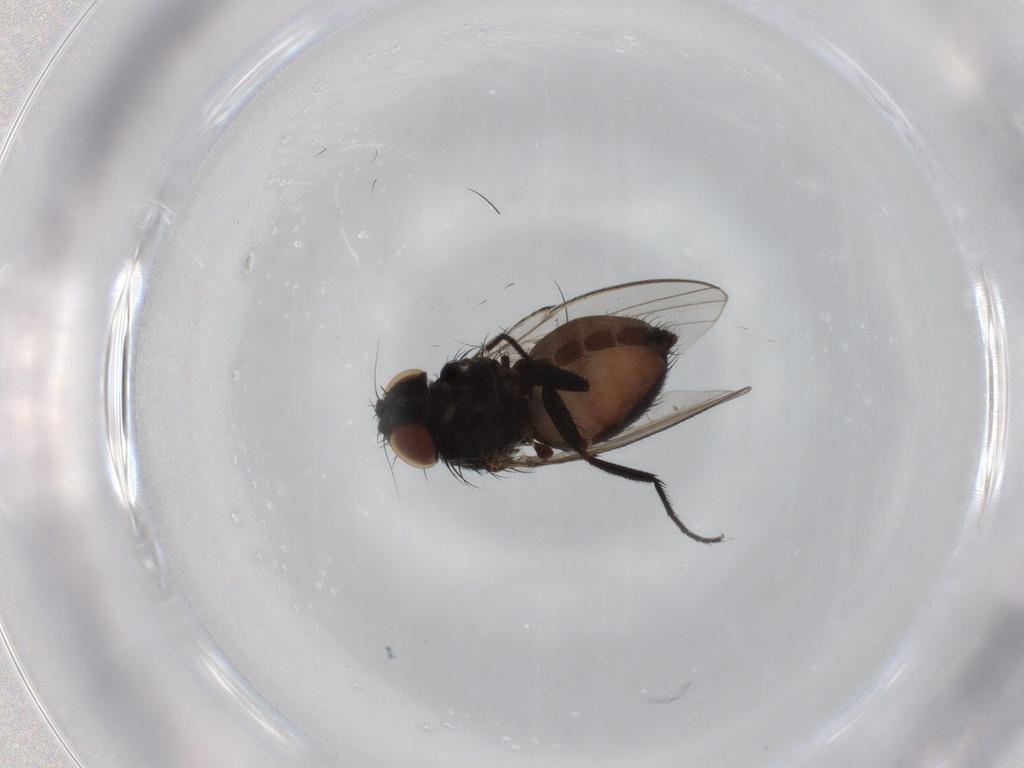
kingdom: Animalia
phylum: Arthropoda
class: Insecta
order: Diptera
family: Milichiidae
